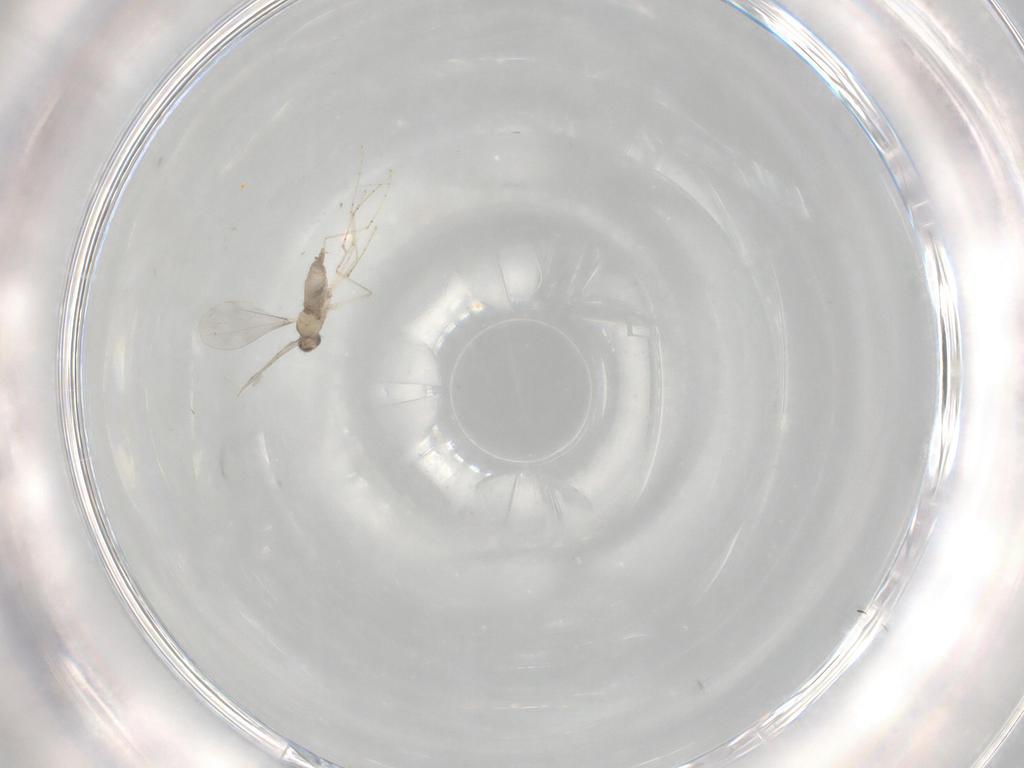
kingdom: Animalia
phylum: Arthropoda
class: Insecta
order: Diptera
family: Sciaridae
